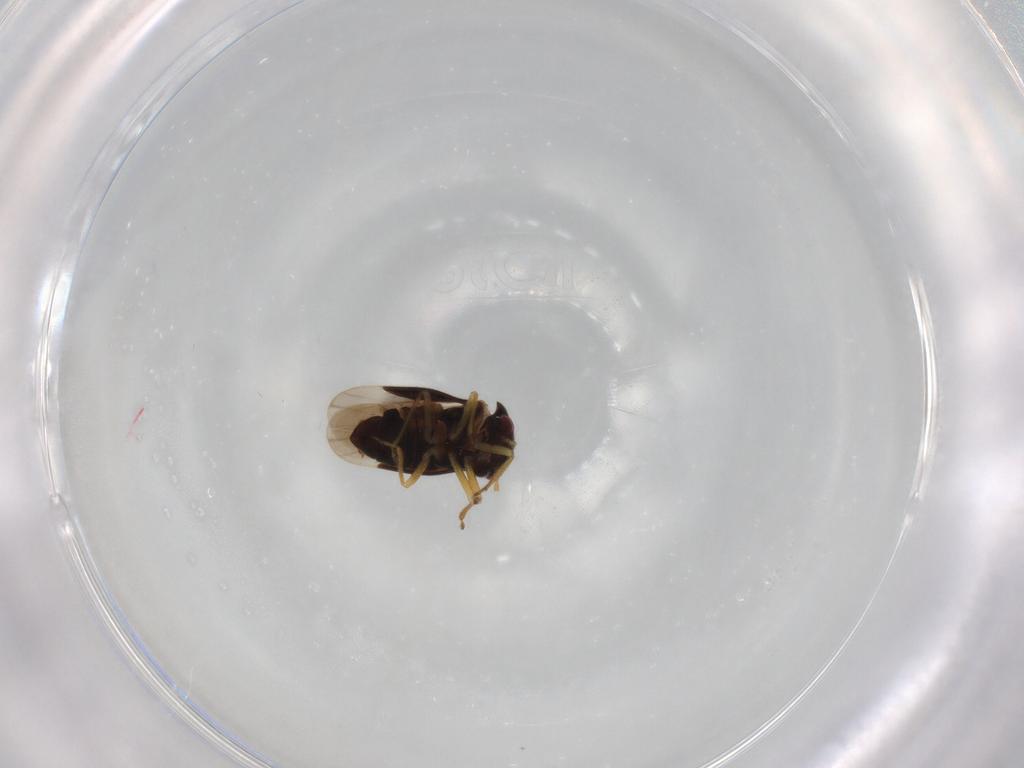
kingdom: Animalia
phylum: Arthropoda
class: Insecta
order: Hemiptera
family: Schizopteridae
